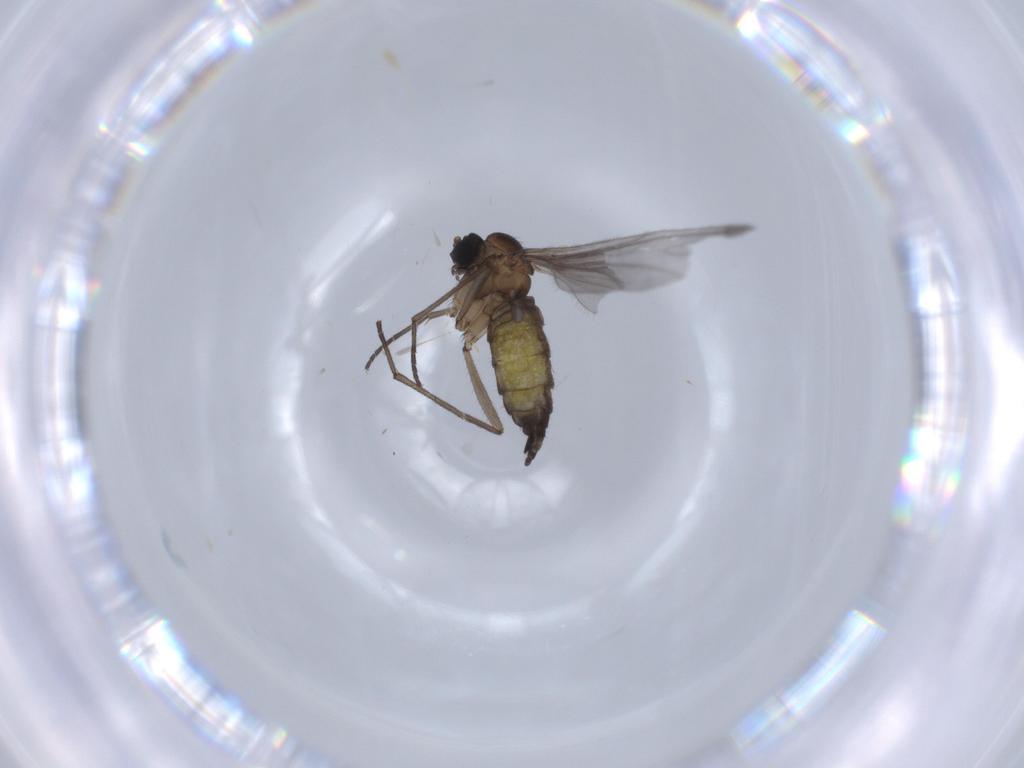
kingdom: Animalia
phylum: Arthropoda
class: Insecta
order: Diptera
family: Sciaridae
